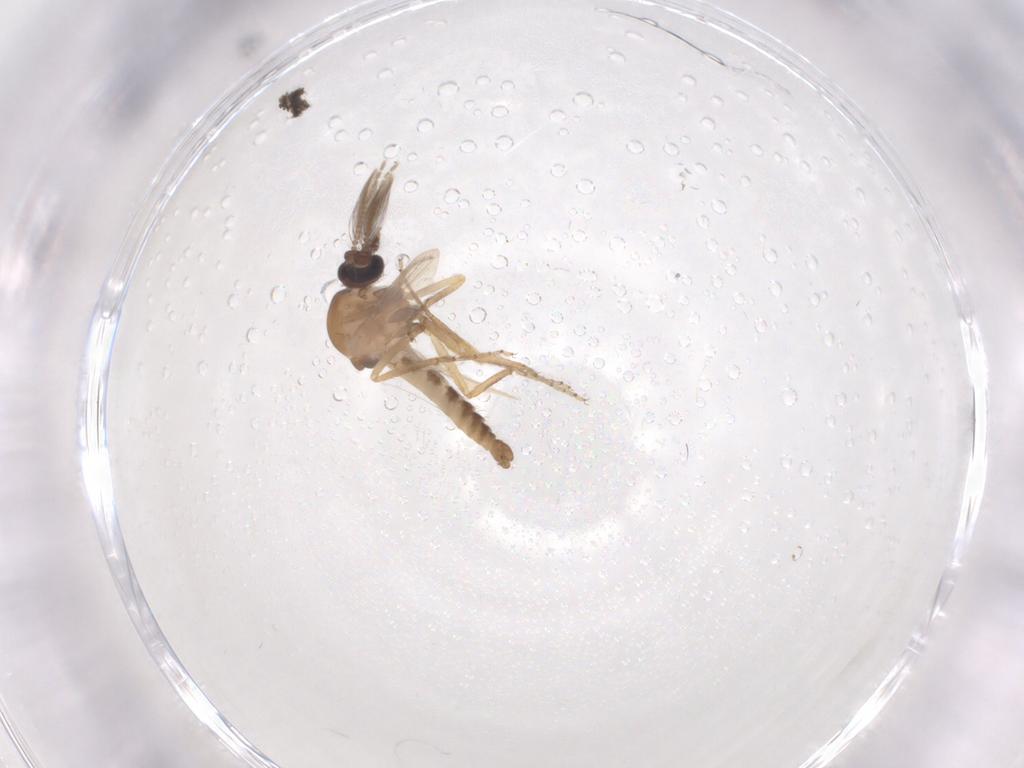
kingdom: Animalia
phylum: Arthropoda
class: Insecta
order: Diptera
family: Ceratopogonidae
